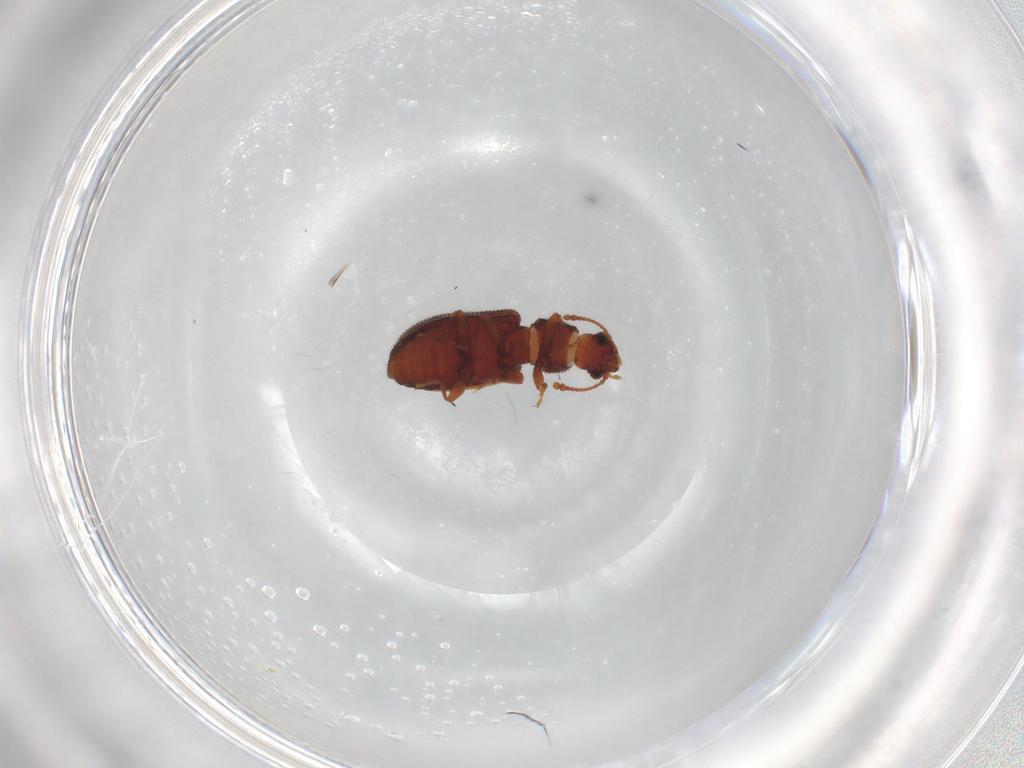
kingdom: Animalia
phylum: Arthropoda
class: Insecta
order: Coleoptera
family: Mycetophagidae
